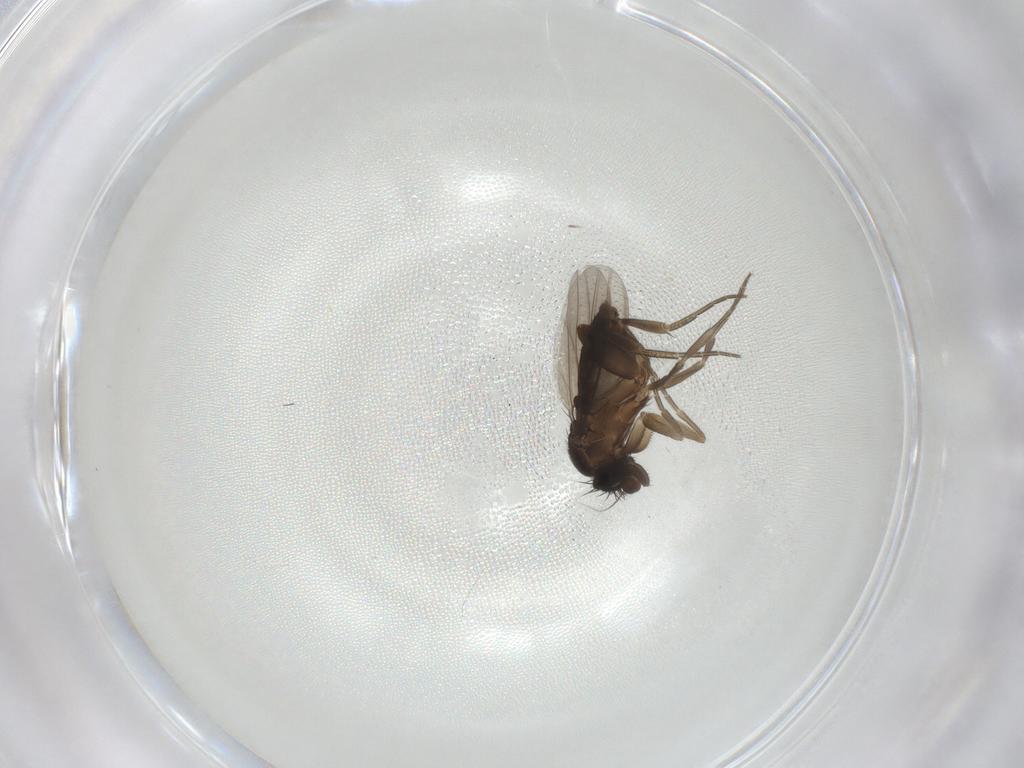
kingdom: Animalia
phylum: Arthropoda
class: Insecta
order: Diptera
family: Phoridae
